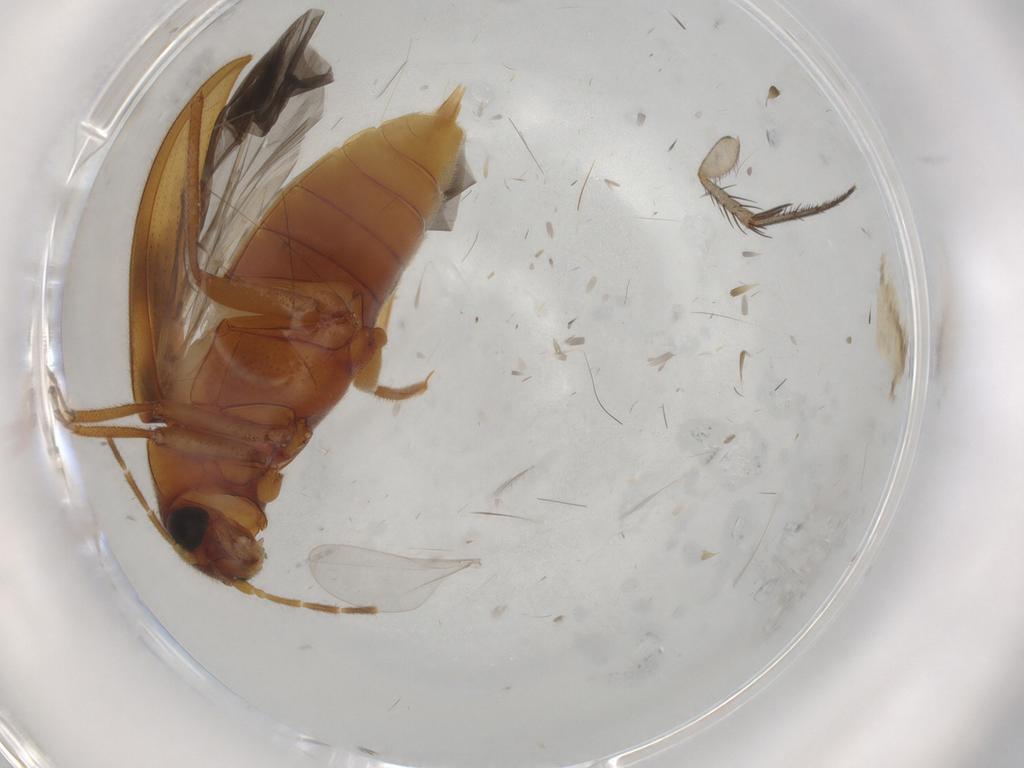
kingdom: Animalia
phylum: Arthropoda
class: Insecta
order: Coleoptera
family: Ptilodactylidae
